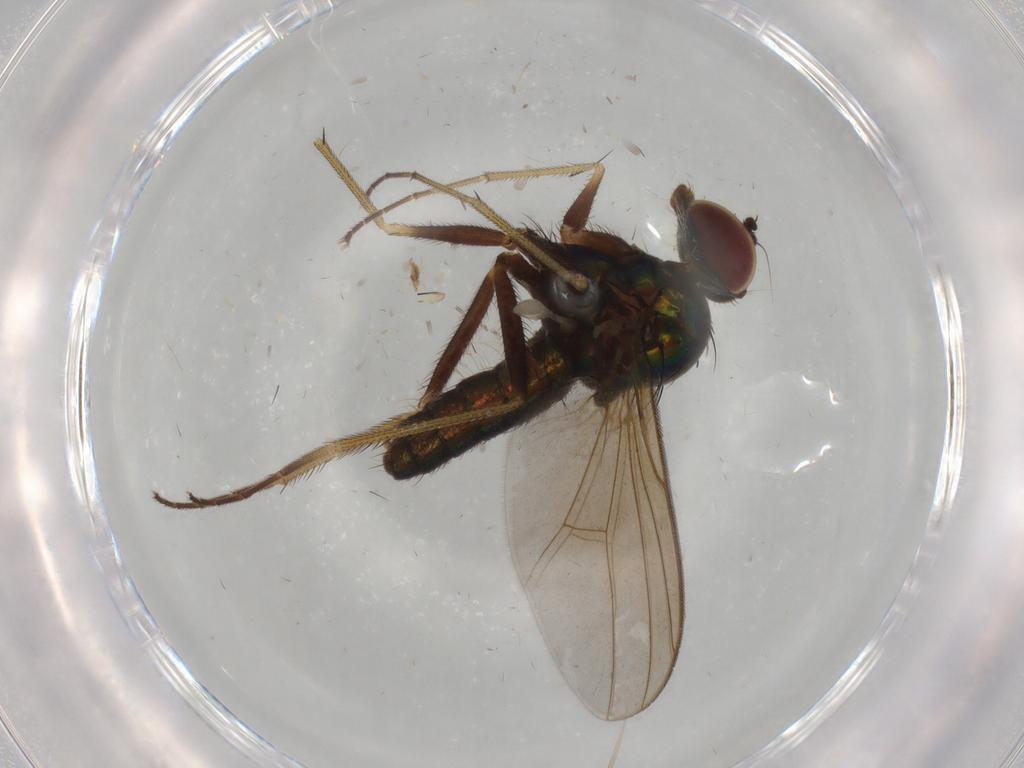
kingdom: Animalia
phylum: Arthropoda
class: Insecta
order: Diptera
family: Dolichopodidae
